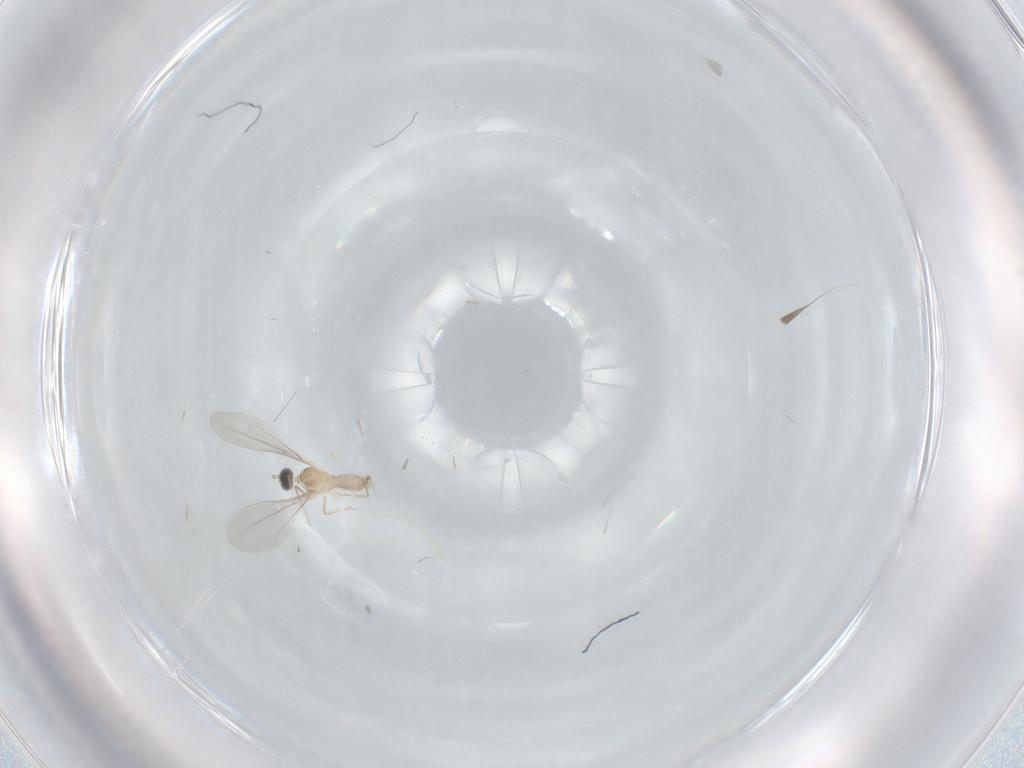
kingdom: Animalia
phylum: Arthropoda
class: Insecta
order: Diptera
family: Cecidomyiidae
